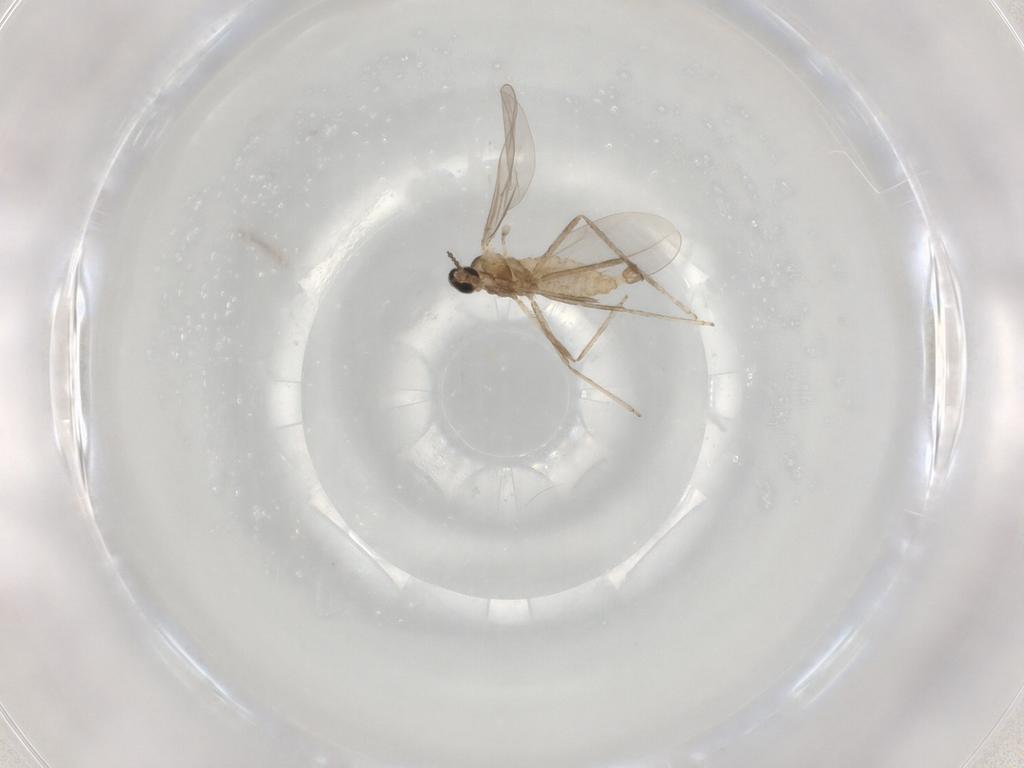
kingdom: Animalia
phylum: Arthropoda
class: Insecta
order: Diptera
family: Cecidomyiidae
